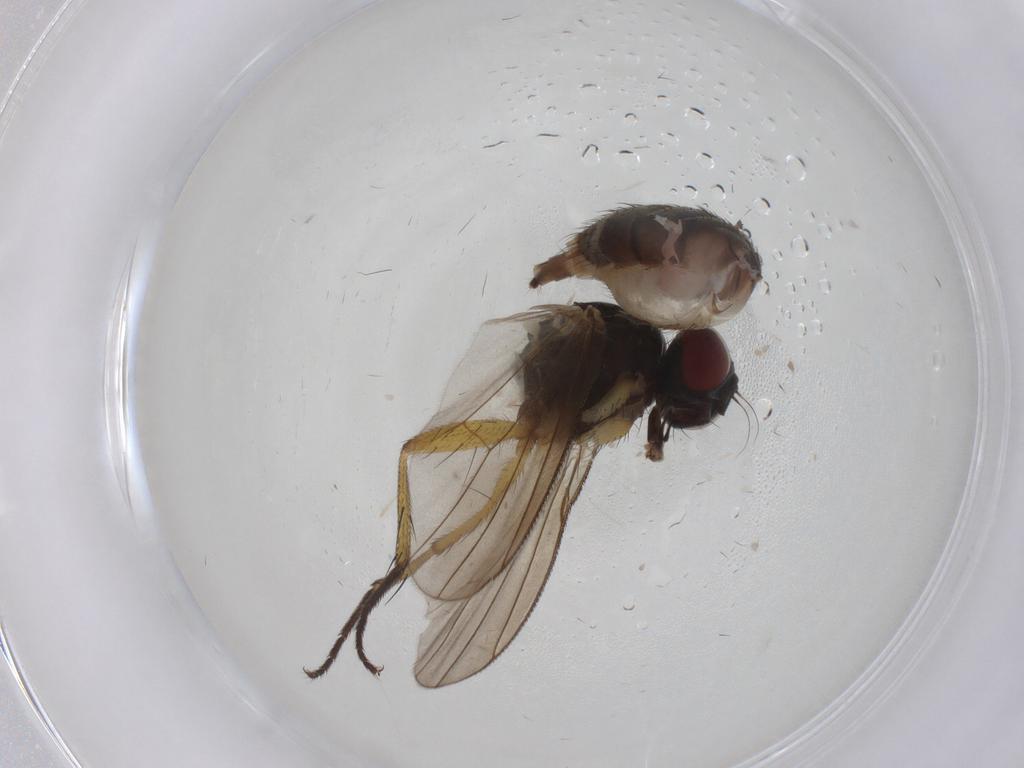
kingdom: Animalia
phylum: Arthropoda
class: Insecta
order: Diptera
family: Muscidae
